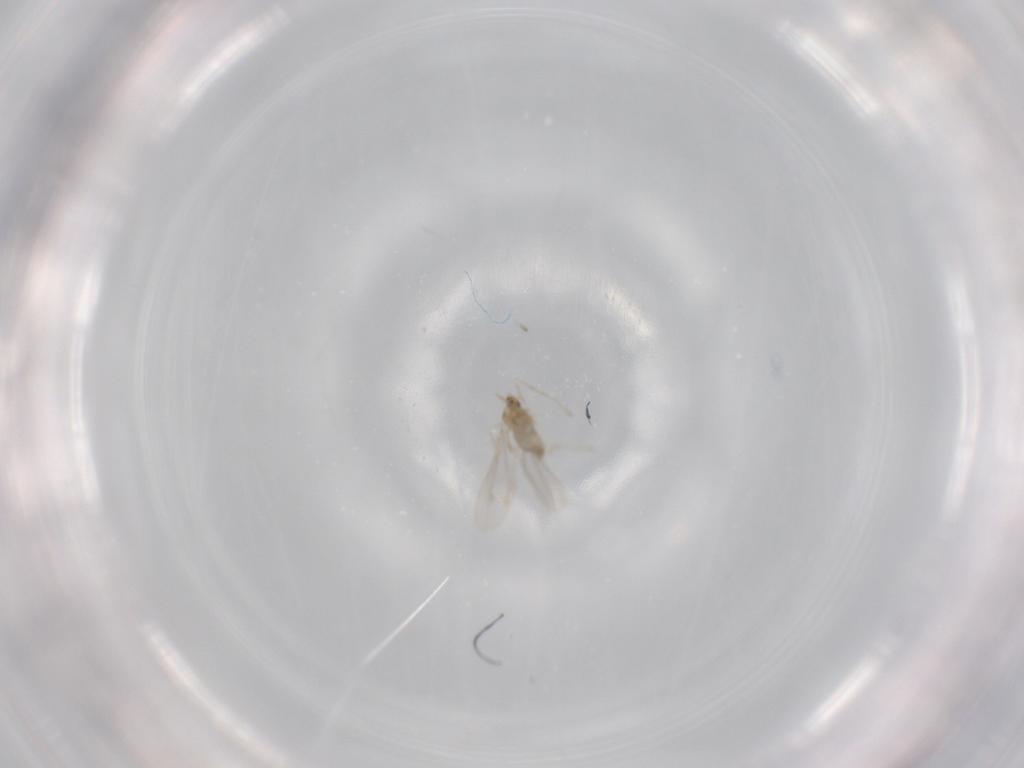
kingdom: Animalia
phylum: Arthropoda
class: Insecta
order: Diptera
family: Cecidomyiidae
